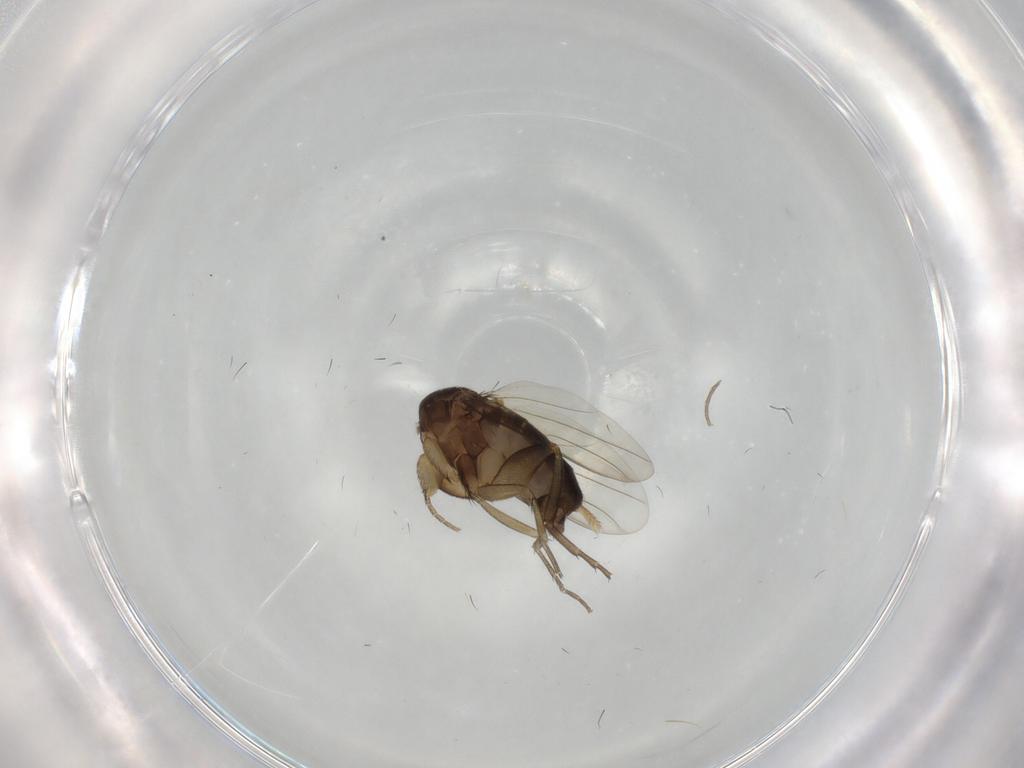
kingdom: Animalia
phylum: Arthropoda
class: Insecta
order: Diptera
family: Phoridae
